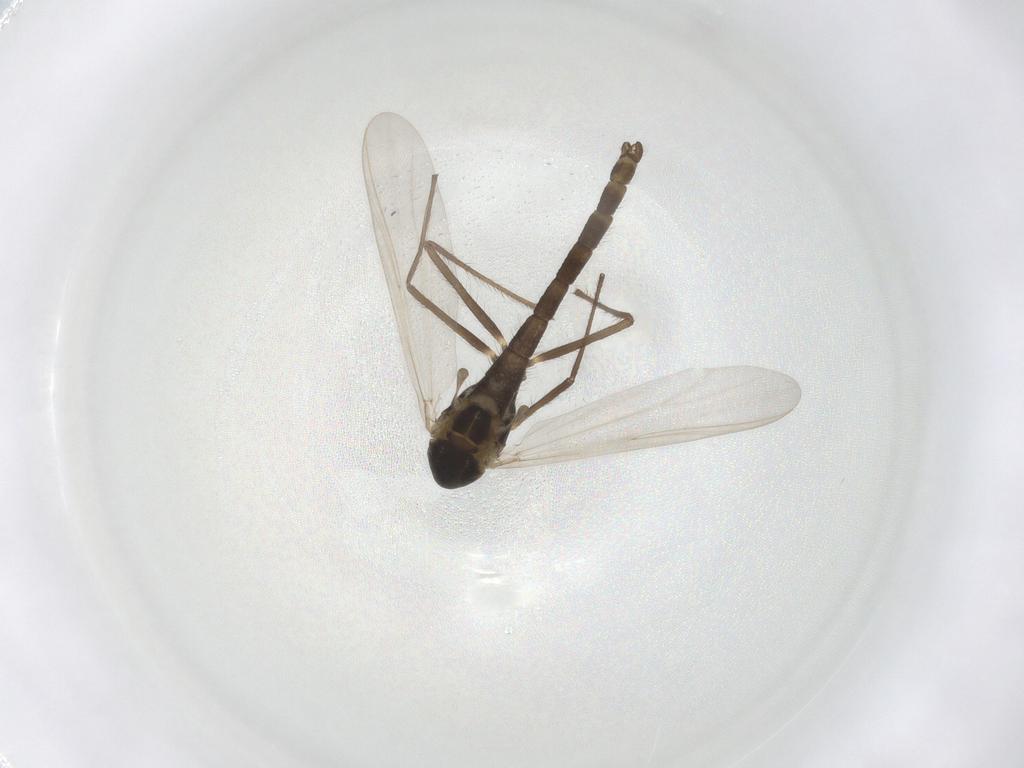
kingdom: Animalia
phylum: Arthropoda
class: Insecta
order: Diptera
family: Chironomidae
